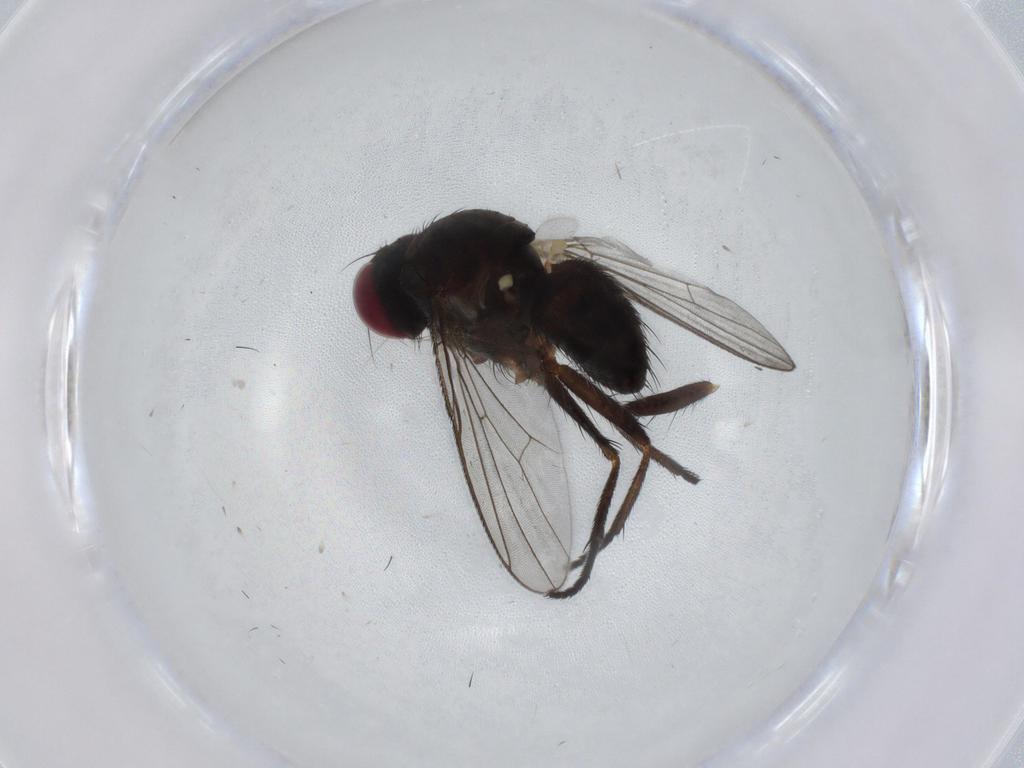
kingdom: Animalia
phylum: Arthropoda
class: Insecta
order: Diptera
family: Muscidae
